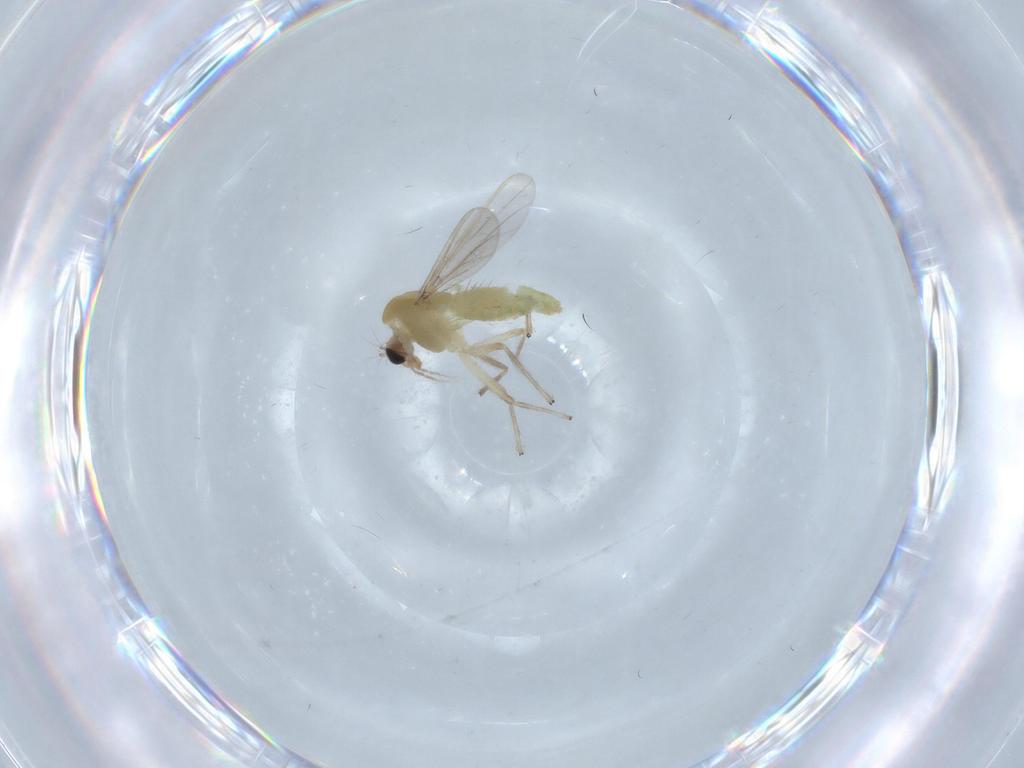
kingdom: Animalia
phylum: Arthropoda
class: Insecta
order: Diptera
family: Chironomidae
